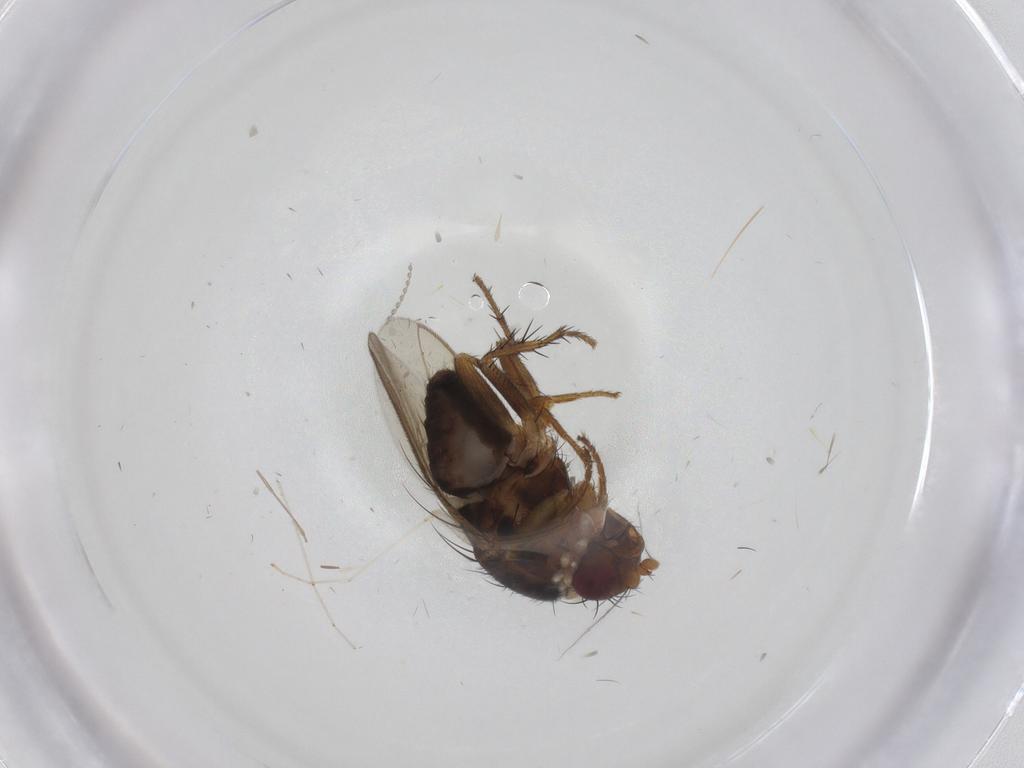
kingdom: Animalia
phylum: Arthropoda
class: Insecta
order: Diptera
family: Sphaeroceridae
